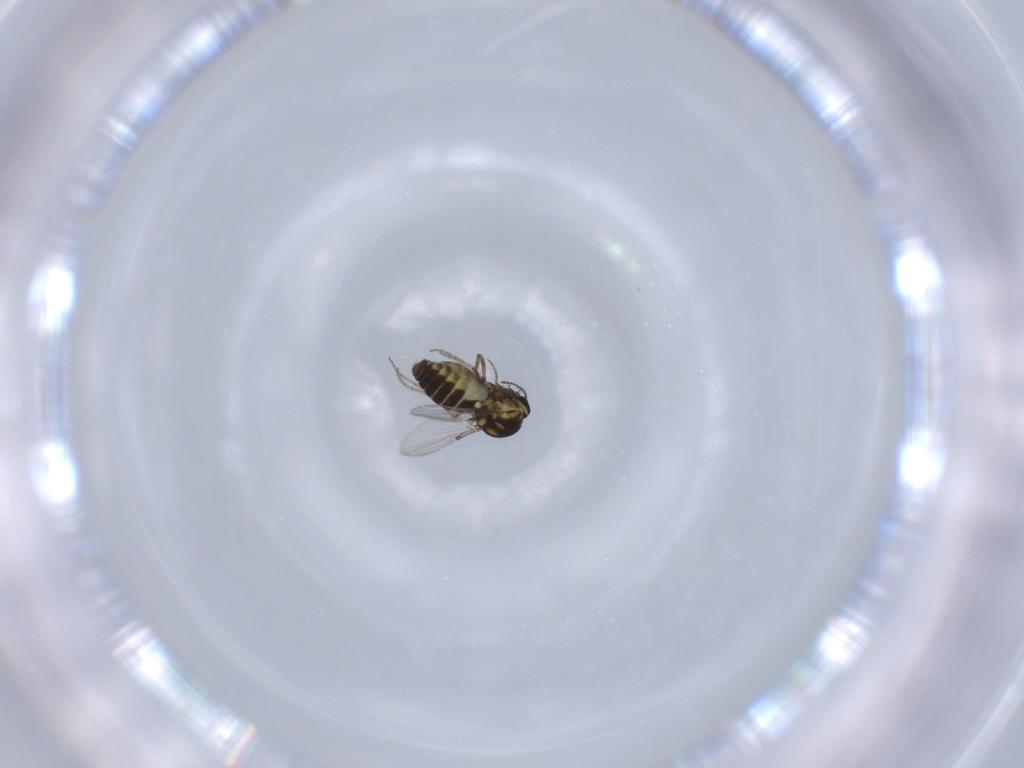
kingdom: Animalia
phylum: Arthropoda
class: Insecta
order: Diptera
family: Ceratopogonidae
